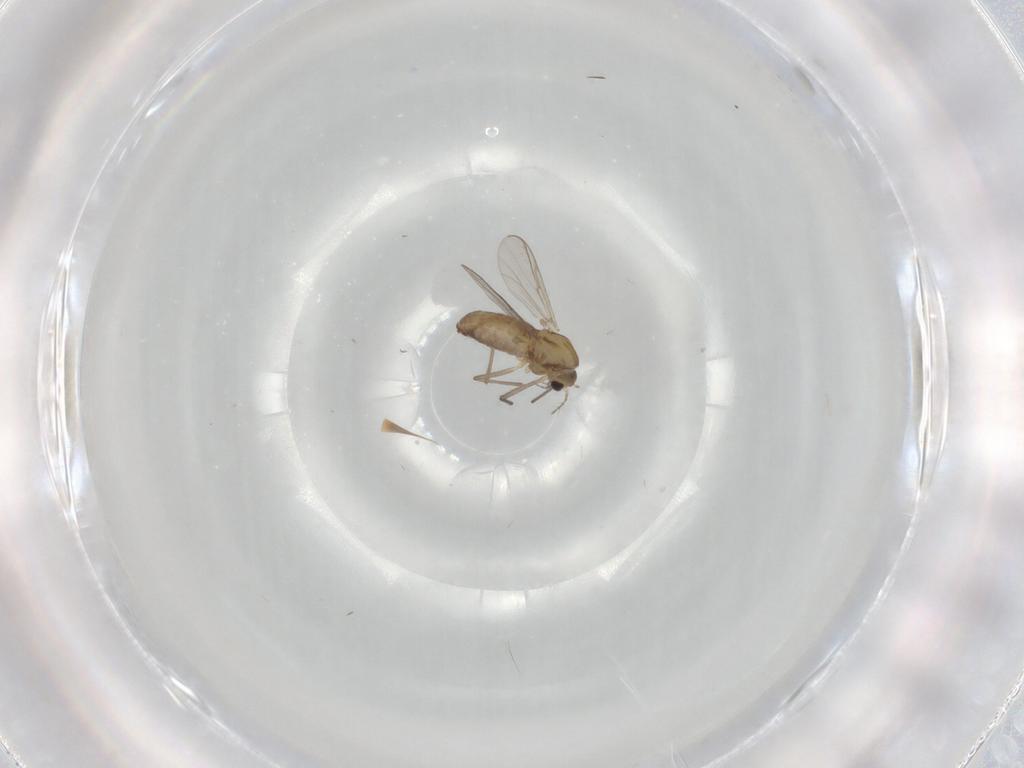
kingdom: Animalia
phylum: Arthropoda
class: Insecta
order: Diptera
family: Chironomidae
